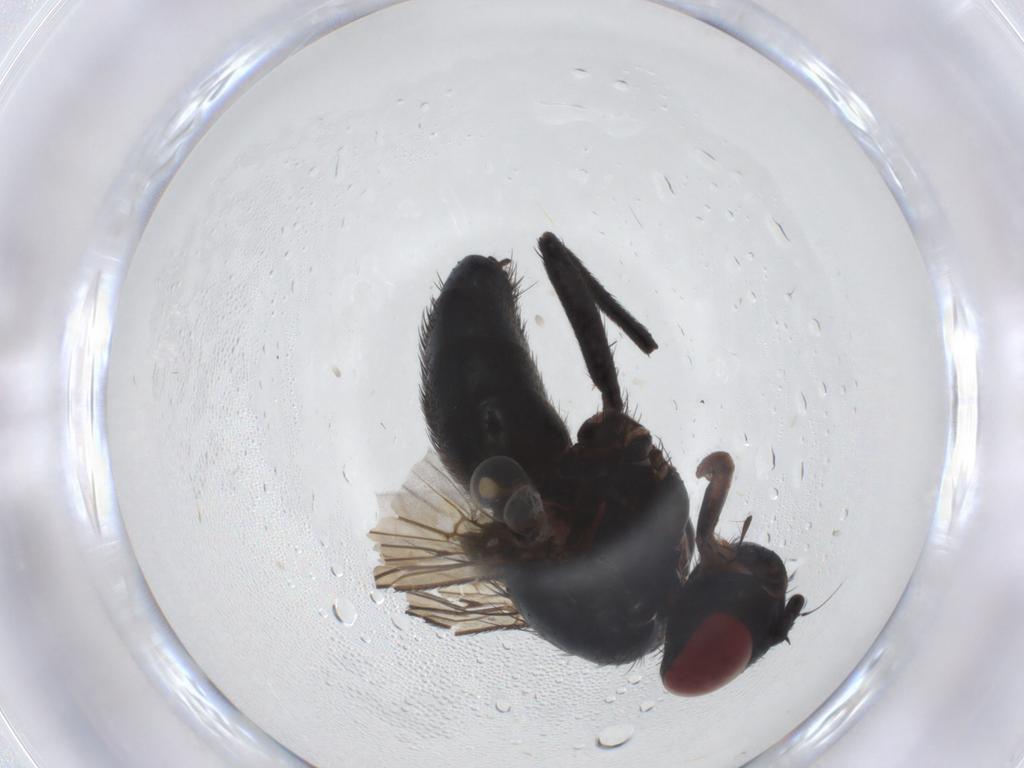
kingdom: Animalia
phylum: Arthropoda
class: Insecta
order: Diptera
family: Calliphoridae
